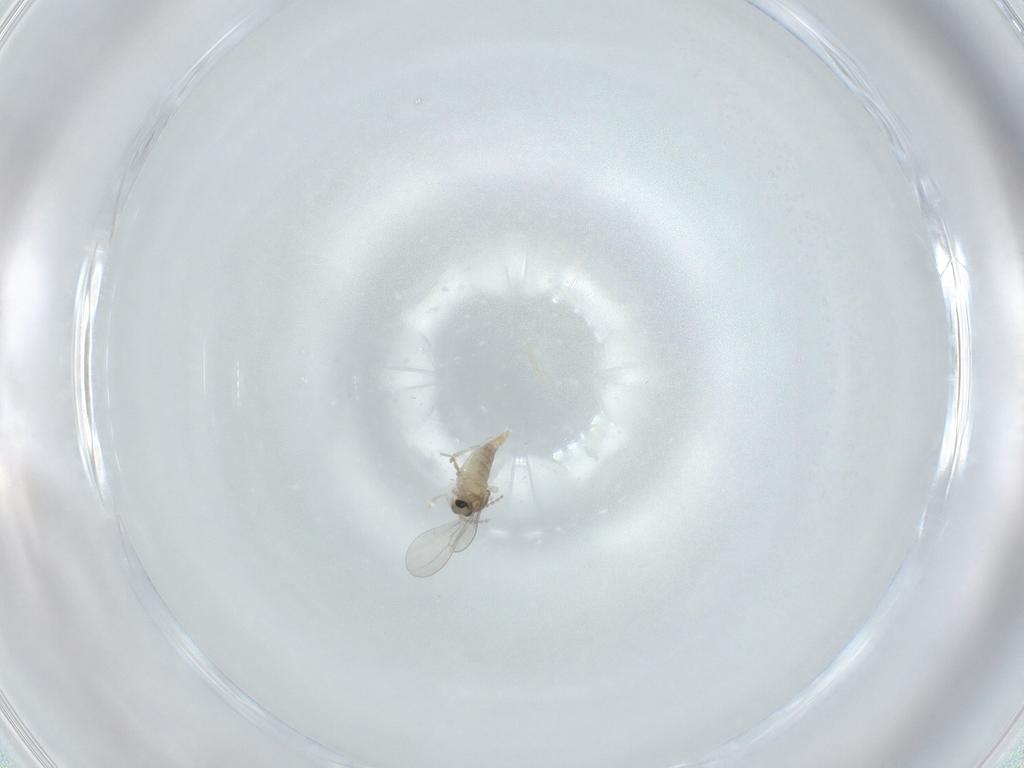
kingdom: Animalia
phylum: Arthropoda
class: Insecta
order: Diptera
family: Cecidomyiidae
